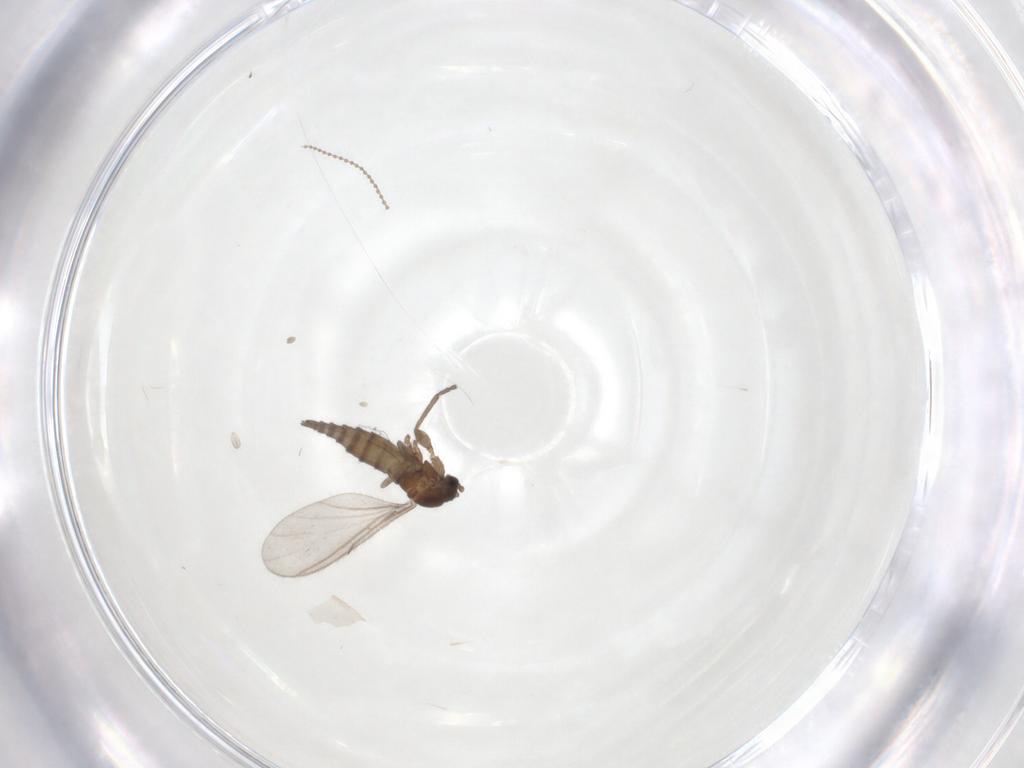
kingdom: Animalia
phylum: Arthropoda
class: Insecta
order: Diptera
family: Sciaridae
